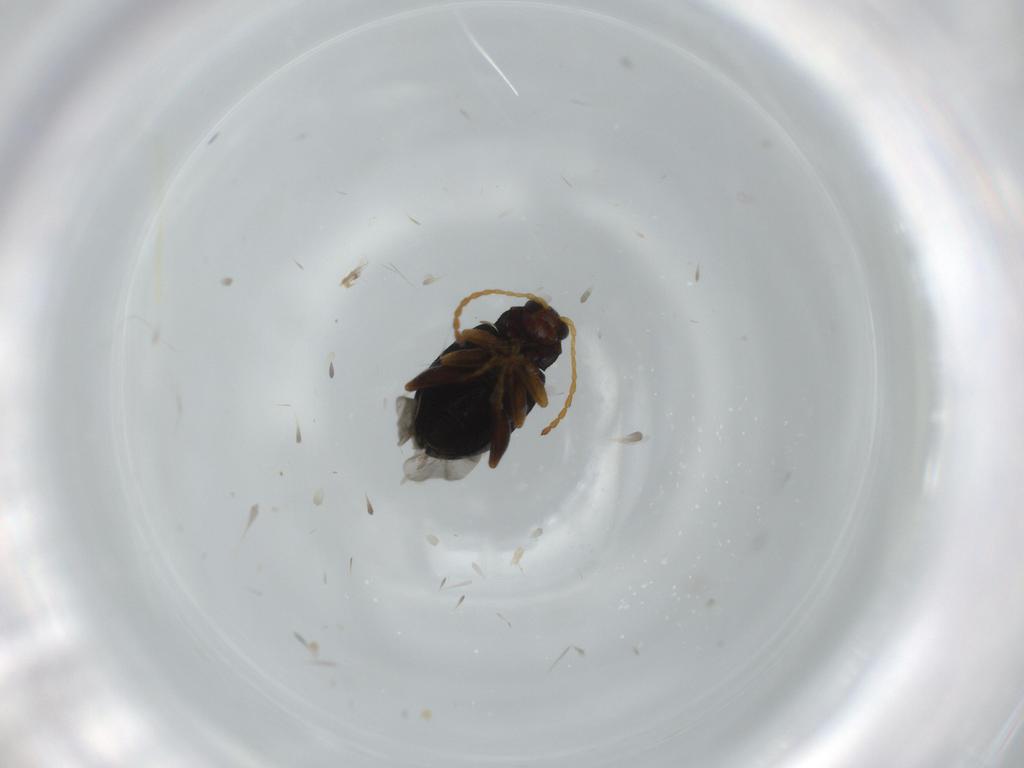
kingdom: Animalia
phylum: Arthropoda
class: Insecta
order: Coleoptera
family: Chrysomelidae
